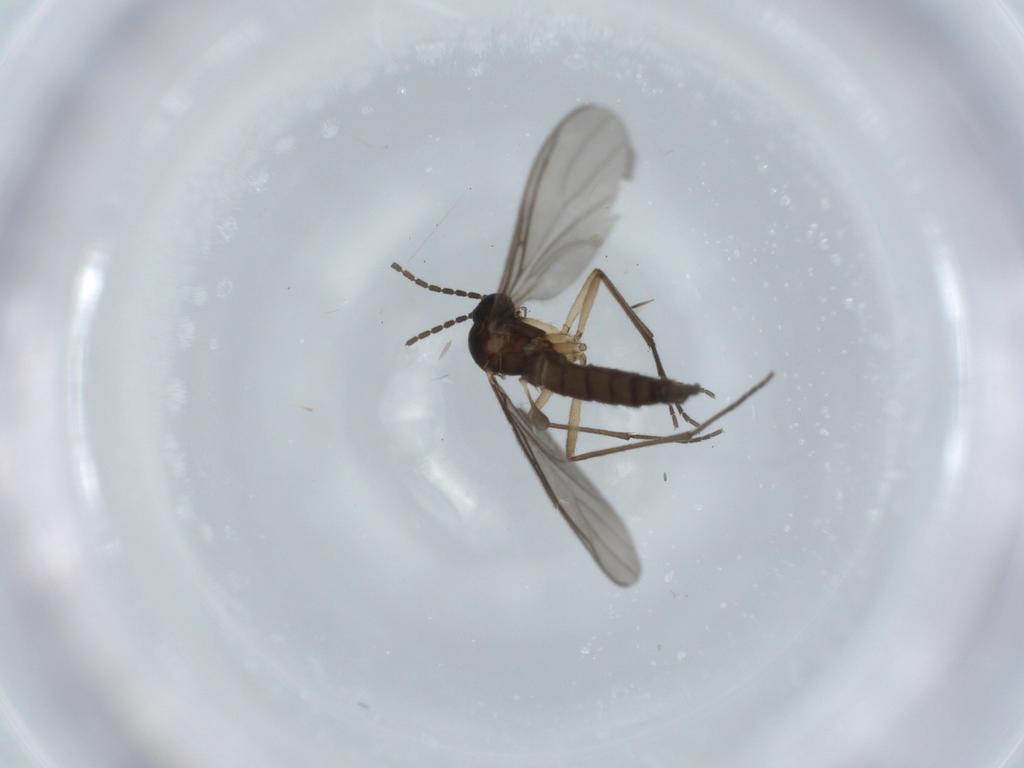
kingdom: Animalia
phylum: Arthropoda
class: Insecta
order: Diptera
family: Sciaridae
